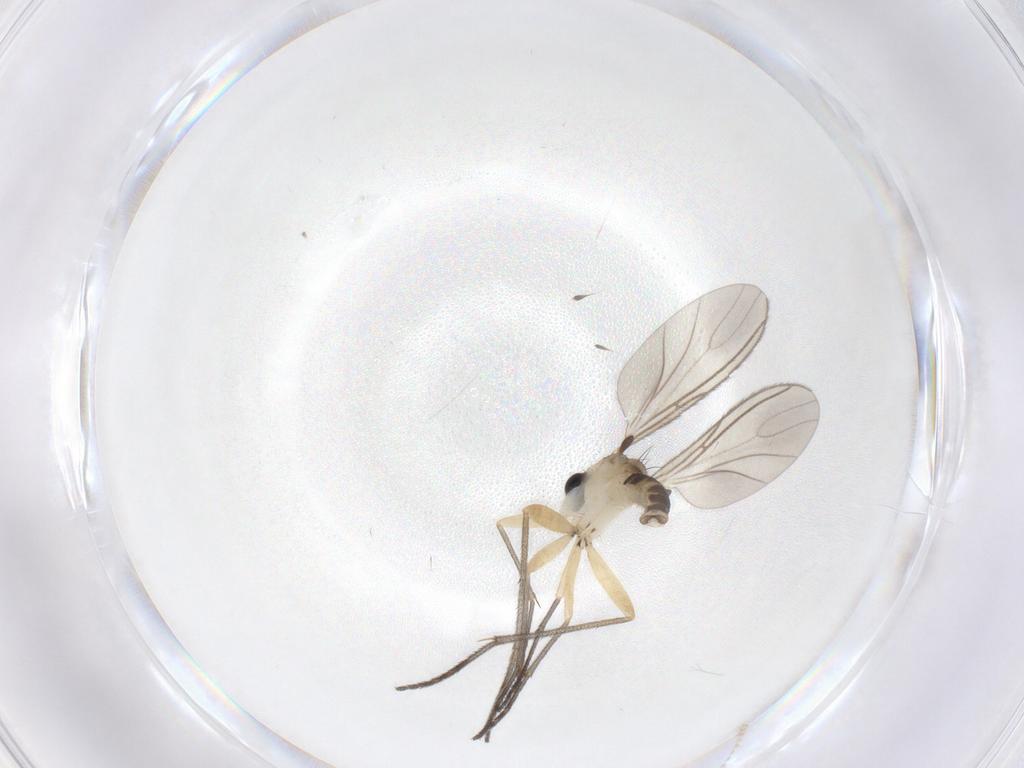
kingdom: Animalia
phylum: Arthropoda
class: Insecta
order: Diptera
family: Sciaridae
